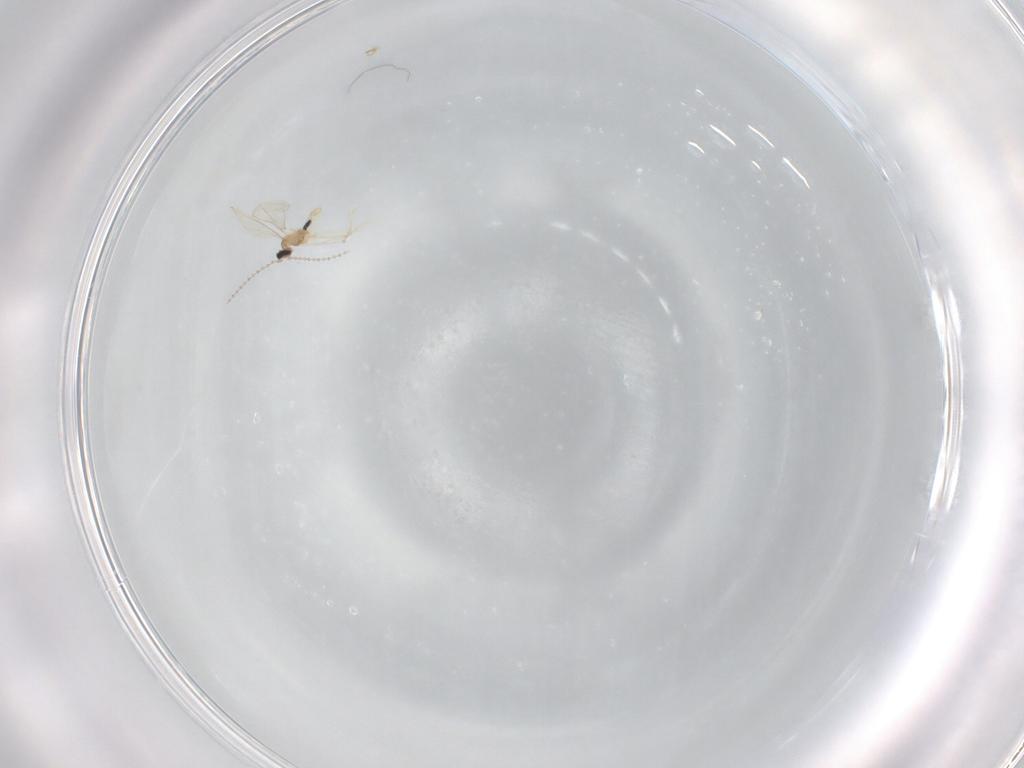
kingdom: Animalia
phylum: Arthropoda
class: Insecta
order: Diptera
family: Cecidomyiidae
